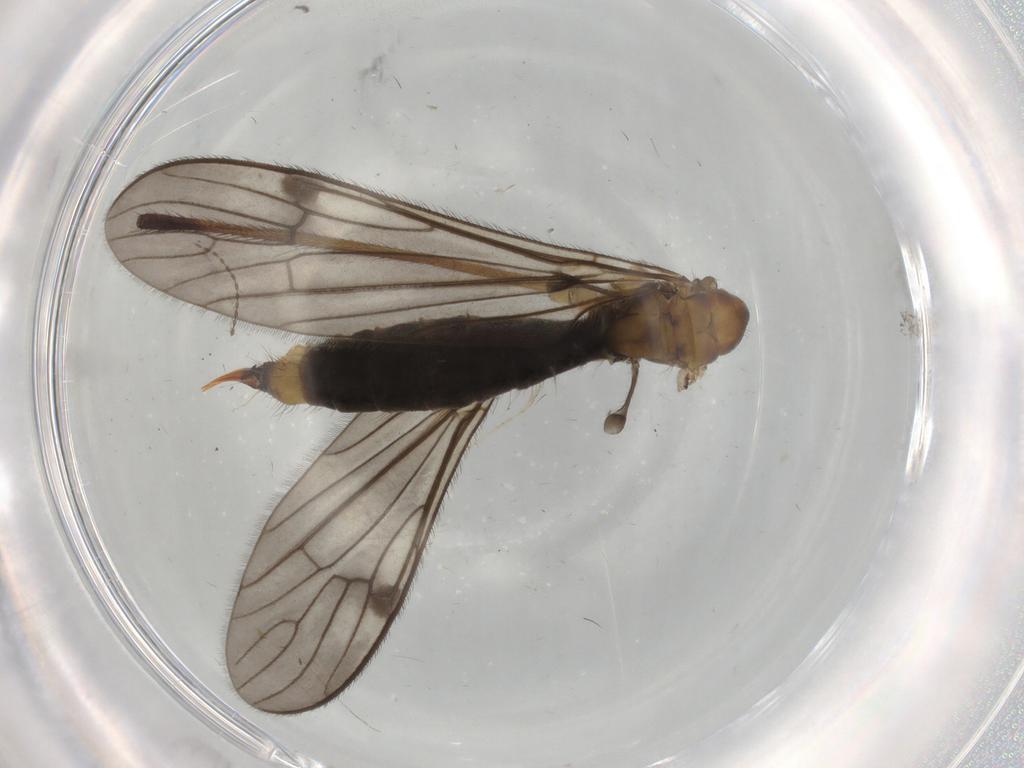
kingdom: Animalia
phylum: Arthropoda
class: Insecta
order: Diptera
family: Limoniidae
